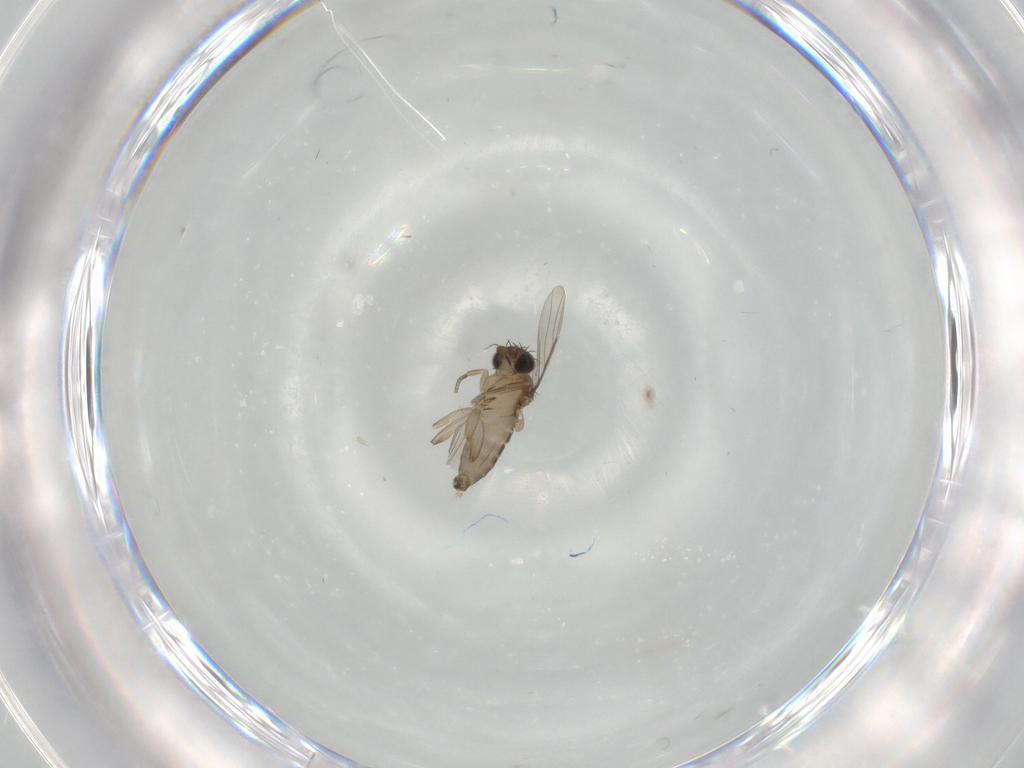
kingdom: Animalia
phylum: Arthropoda
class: Insecta
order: Diptera
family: Phoridae
